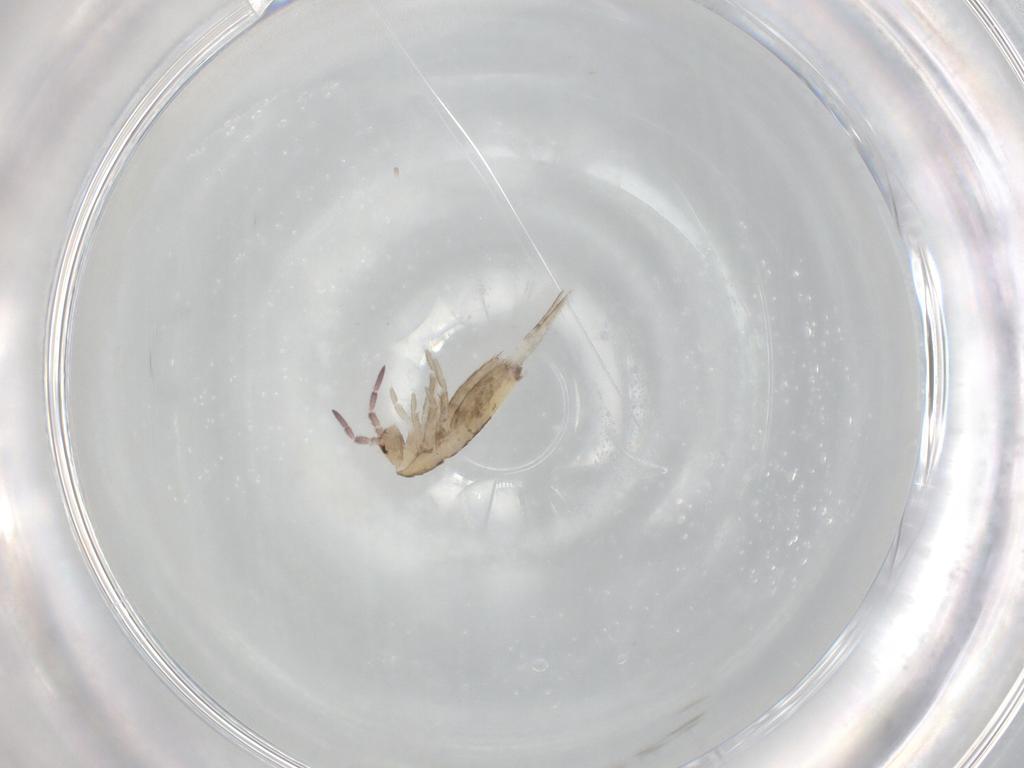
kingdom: Animalia
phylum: Arthropoda
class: Collembola
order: Entomobryomorpha
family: Entomobryidae
